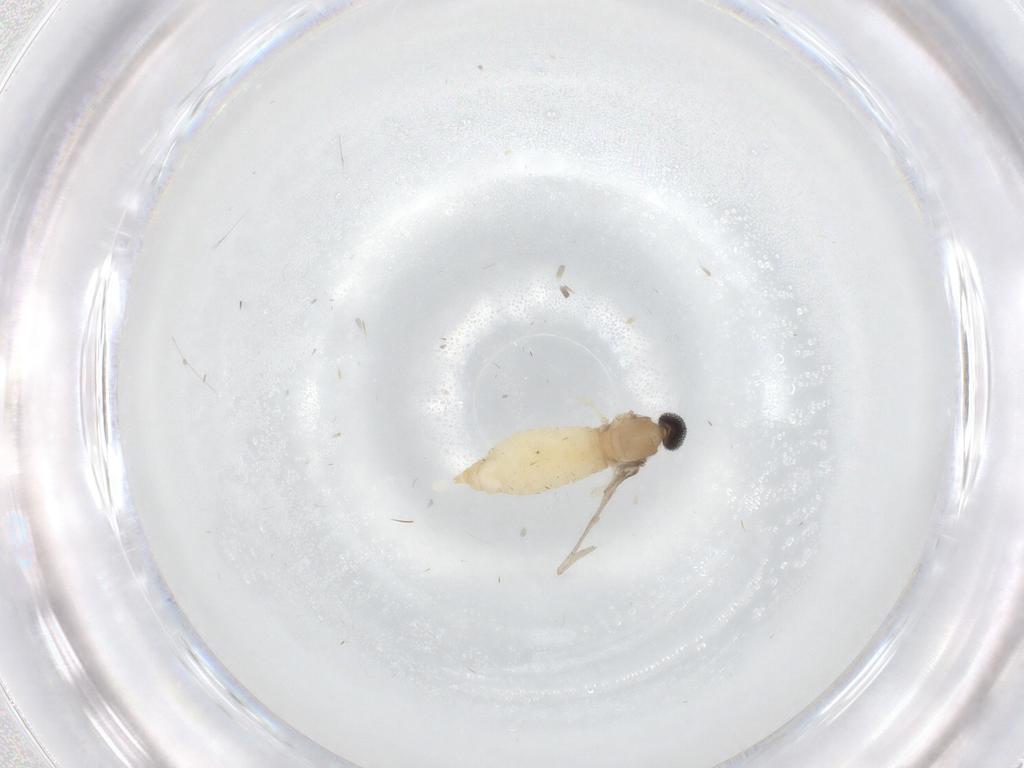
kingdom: Animalia
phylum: Arthropoda
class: Insecta
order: Diptera
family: Cecidomyiidae
